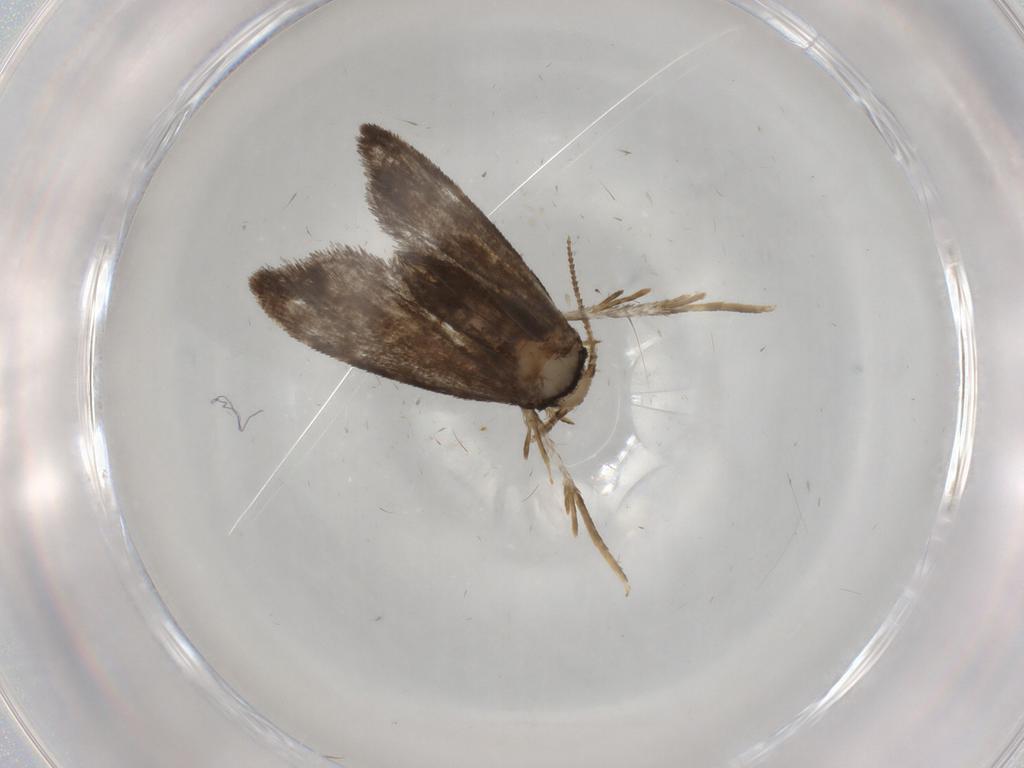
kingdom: Animalia
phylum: Arthropoda
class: Insecta
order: Lepidoptera
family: Psychidae
